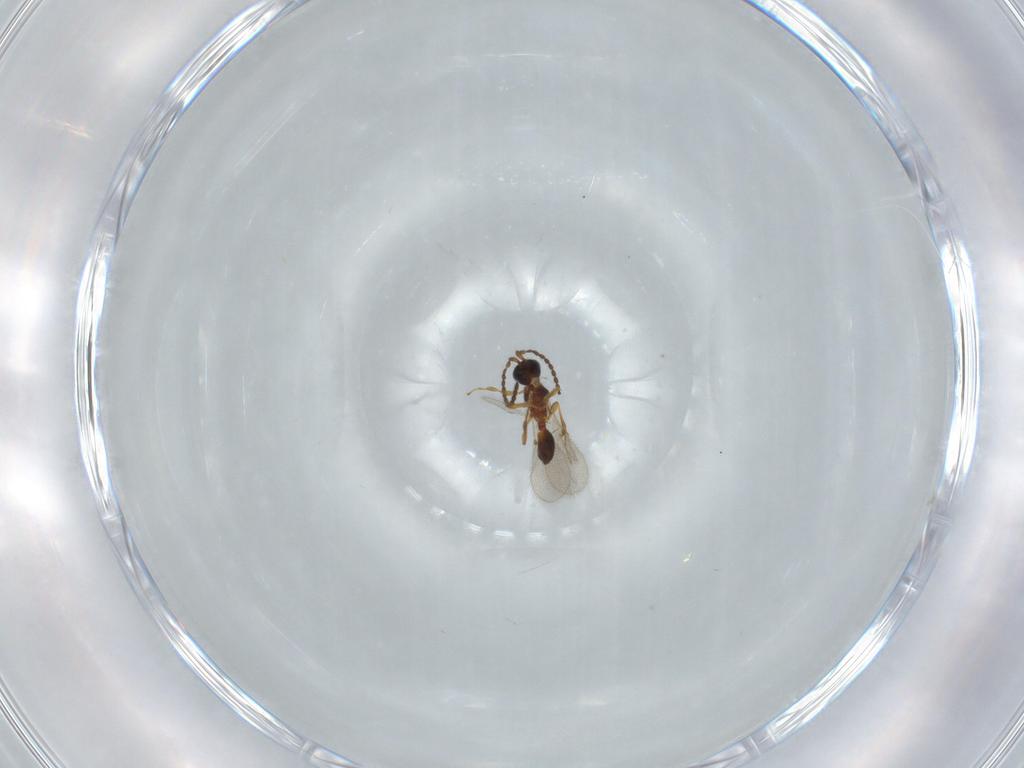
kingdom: Animalia
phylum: Arthropoda
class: Insecta
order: Hymenoptera
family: Diapriidae
